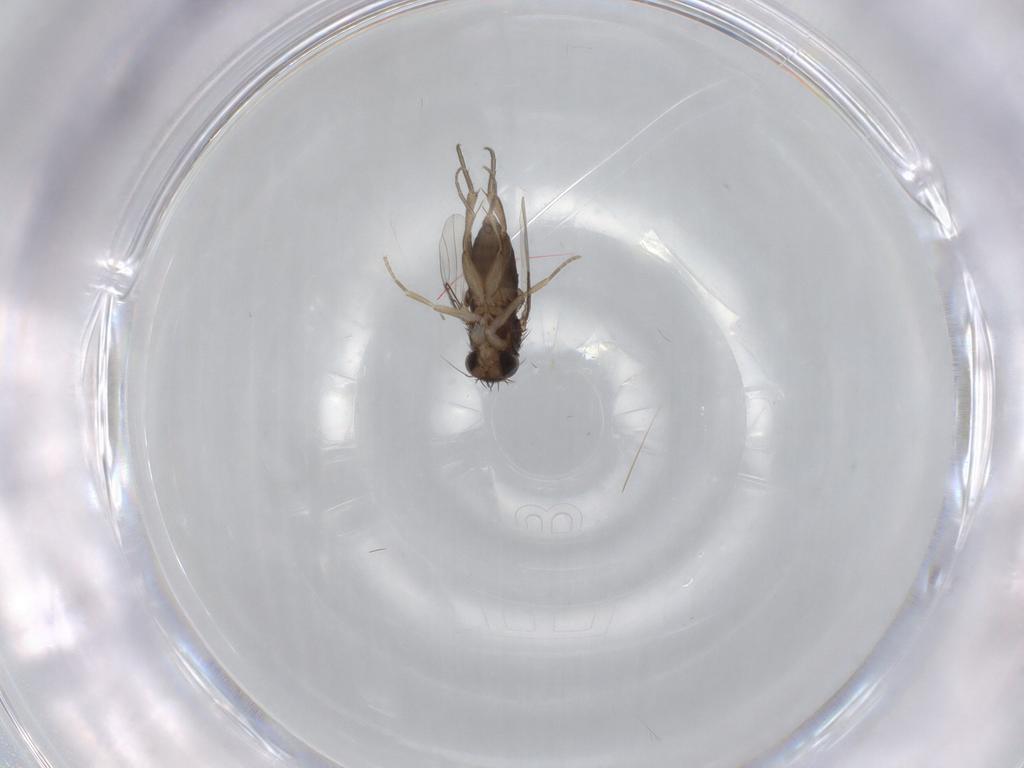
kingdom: Animalia
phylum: Arthropoda
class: Insecta
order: Diptera
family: Phoridae
